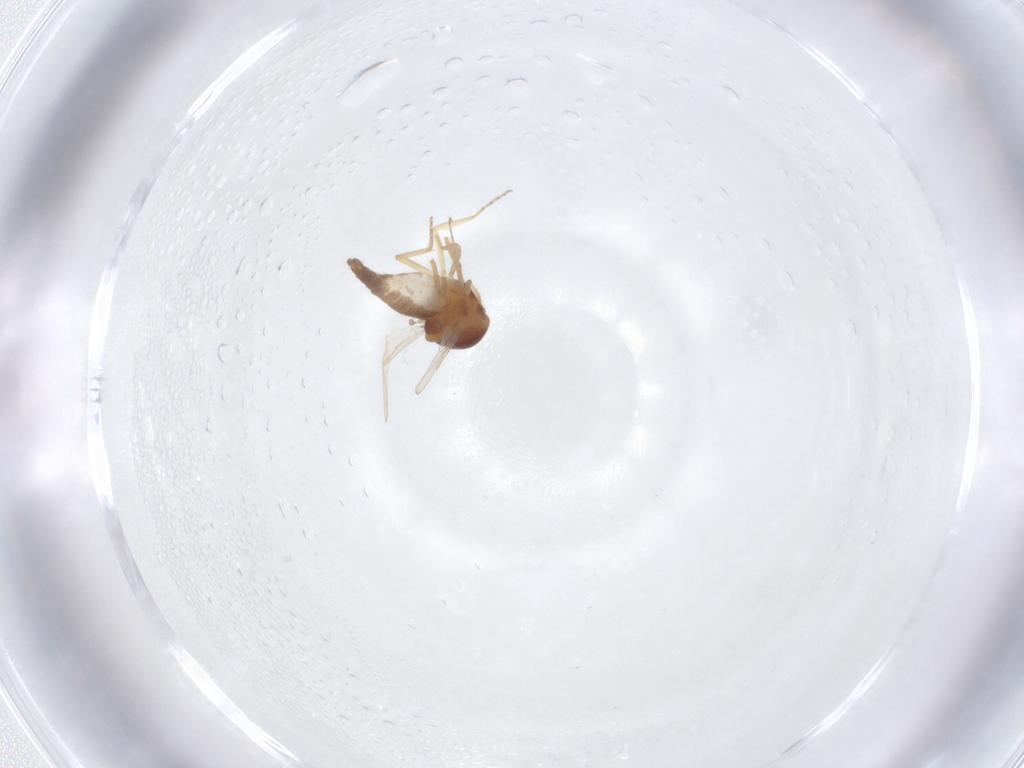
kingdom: Animalia
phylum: Arthropoda
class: Insecta
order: Diptera
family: Ceratopogonidae
